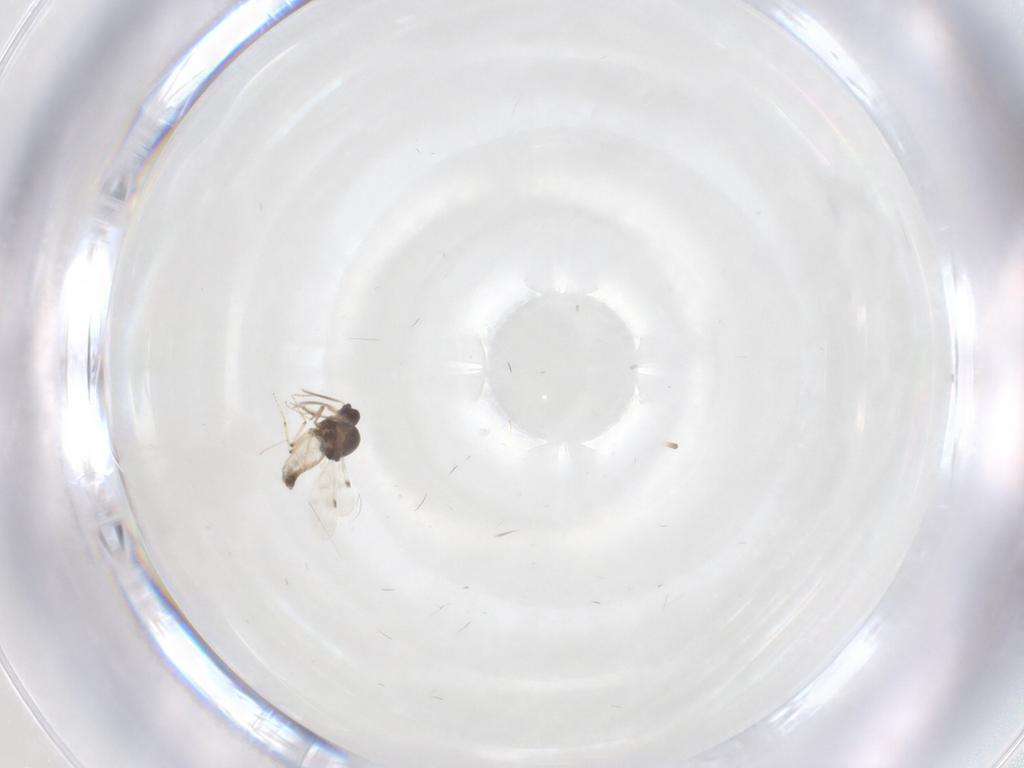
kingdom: Animalia
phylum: Arthropoda
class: Insecta
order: Diptera
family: Chironomidae
